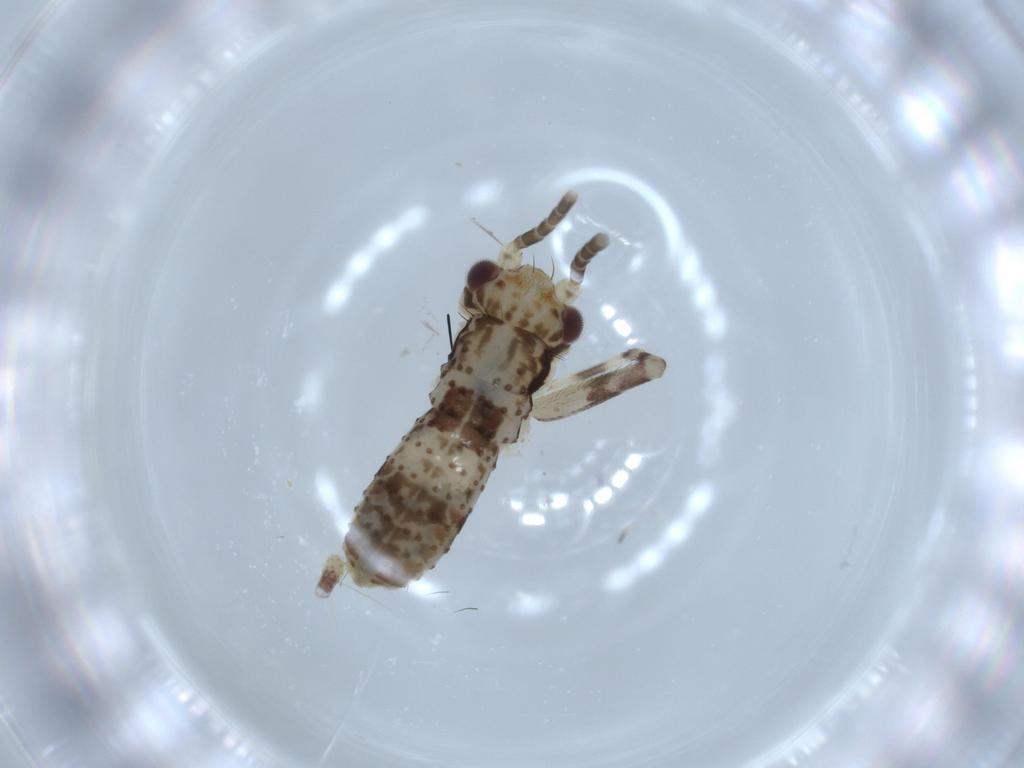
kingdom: Animalia
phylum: Arthropoda
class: Insecta
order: Orthoptera
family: Gryllidae
